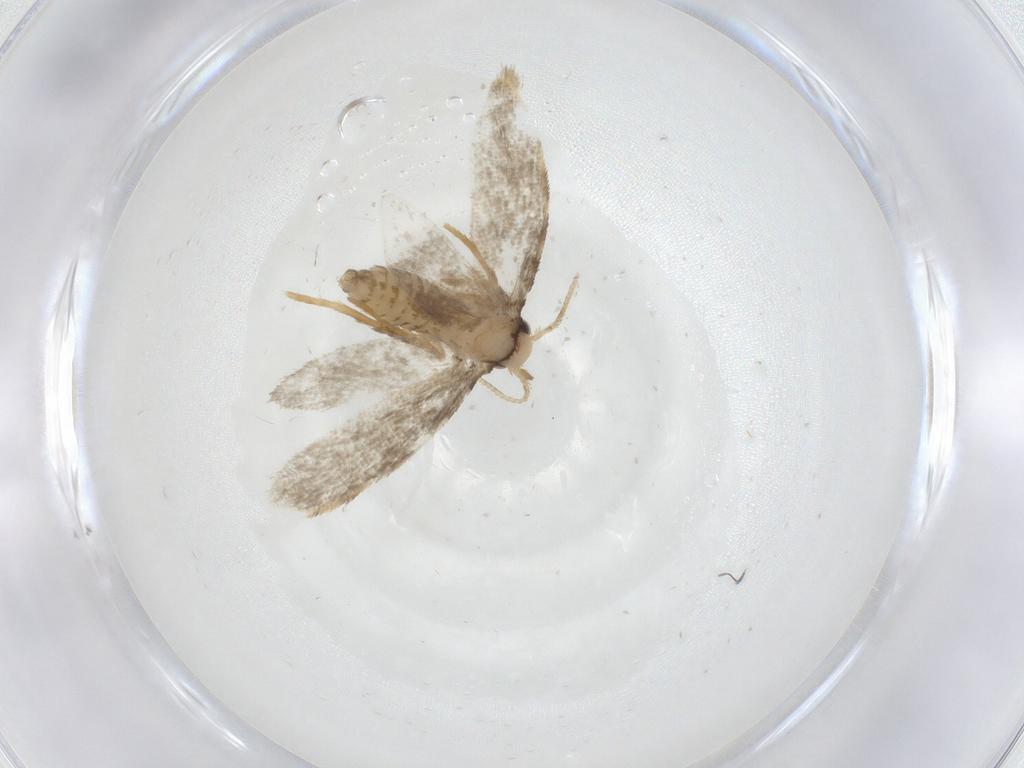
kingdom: Animalia
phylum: Arthropoda
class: Insecta
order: Lepidoptera
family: Psychidae
